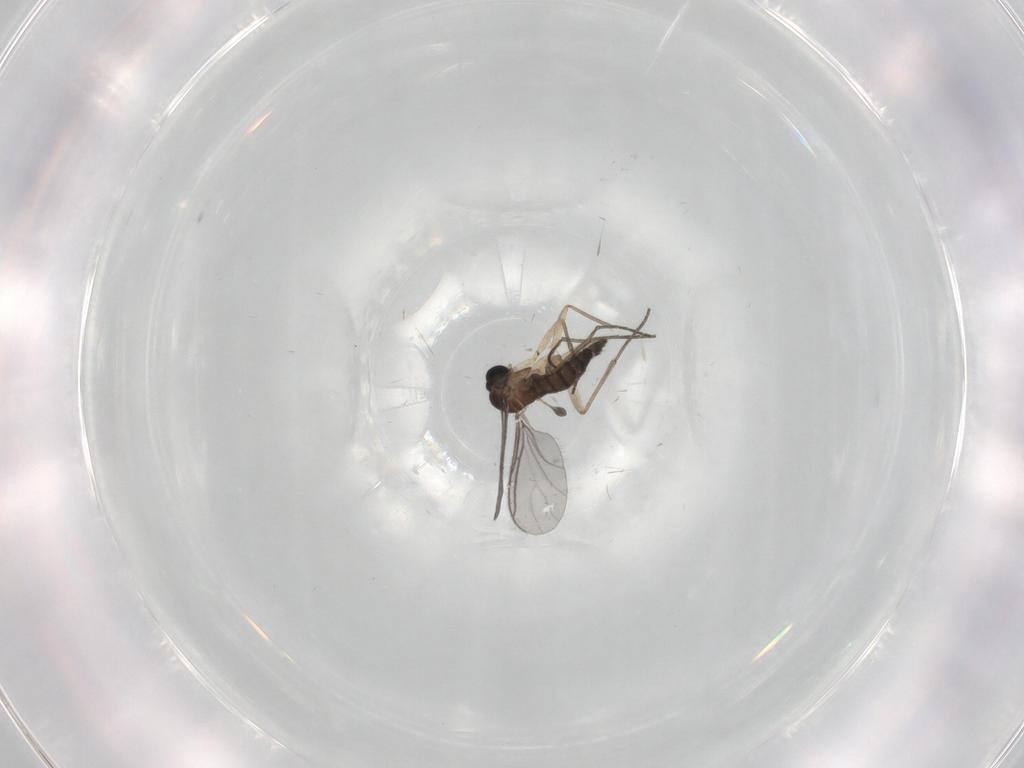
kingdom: Animalia
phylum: Arthropoda
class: Insecta
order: Diptera
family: Sciaridae
